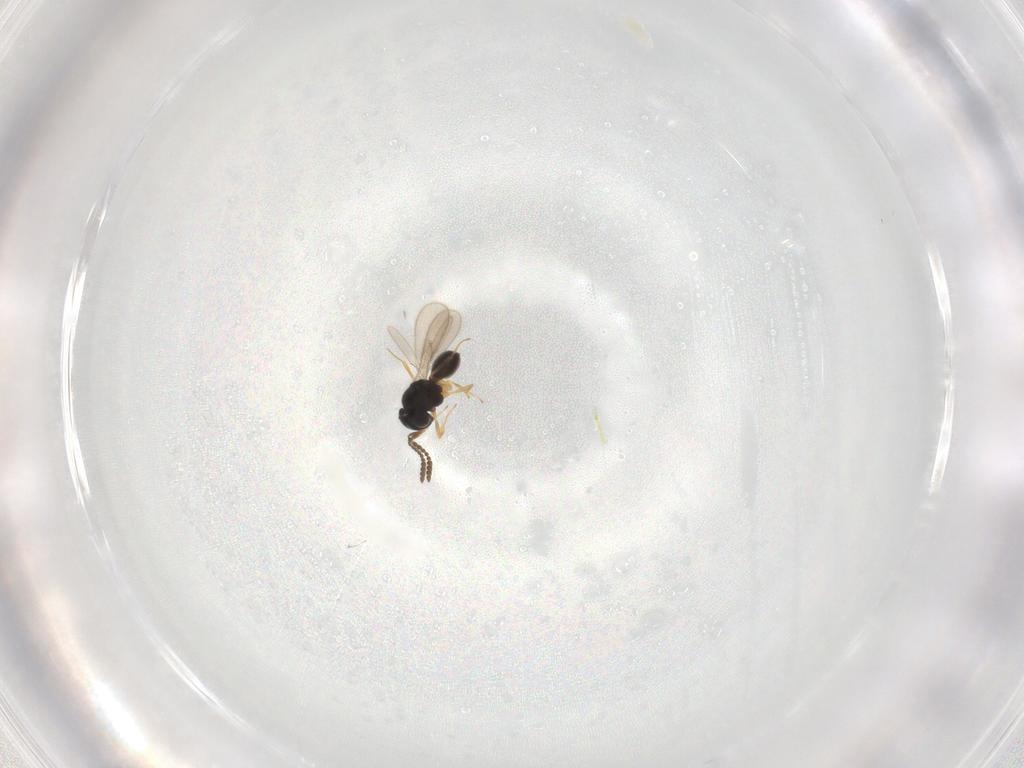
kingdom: Animalia
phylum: Arthropoda
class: Insecta
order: Hymenoptera
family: Scelionidae
